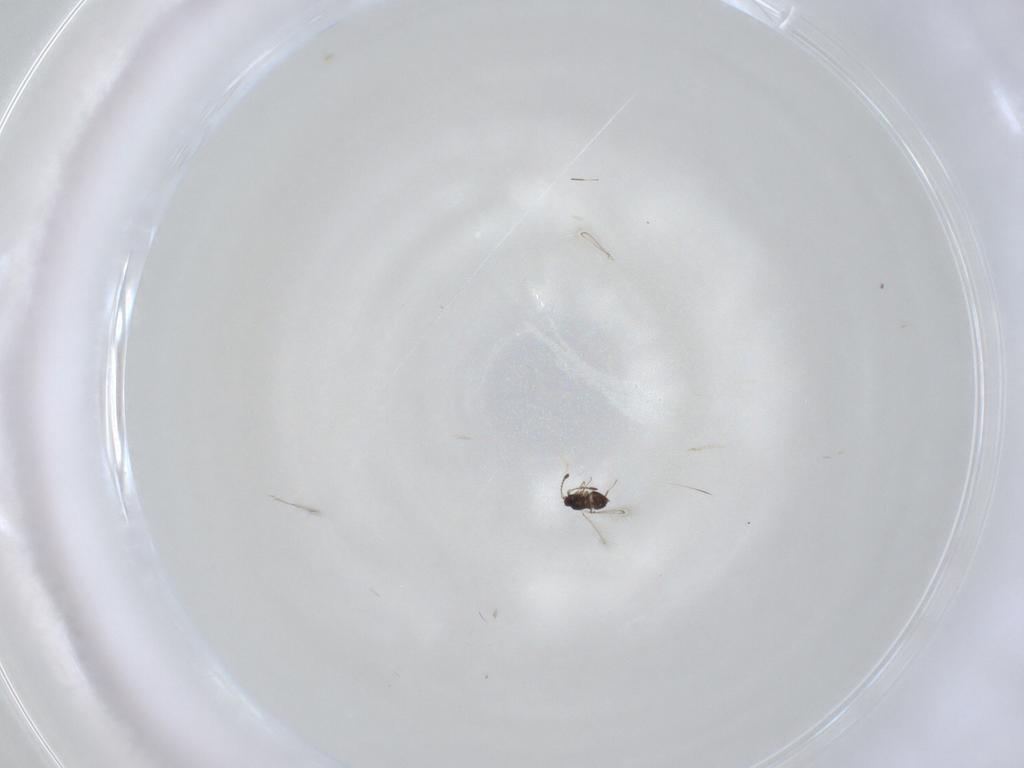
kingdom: Animalia
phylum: Arthropoda
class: Insecta
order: Hymenoptera
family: Mymaridae
